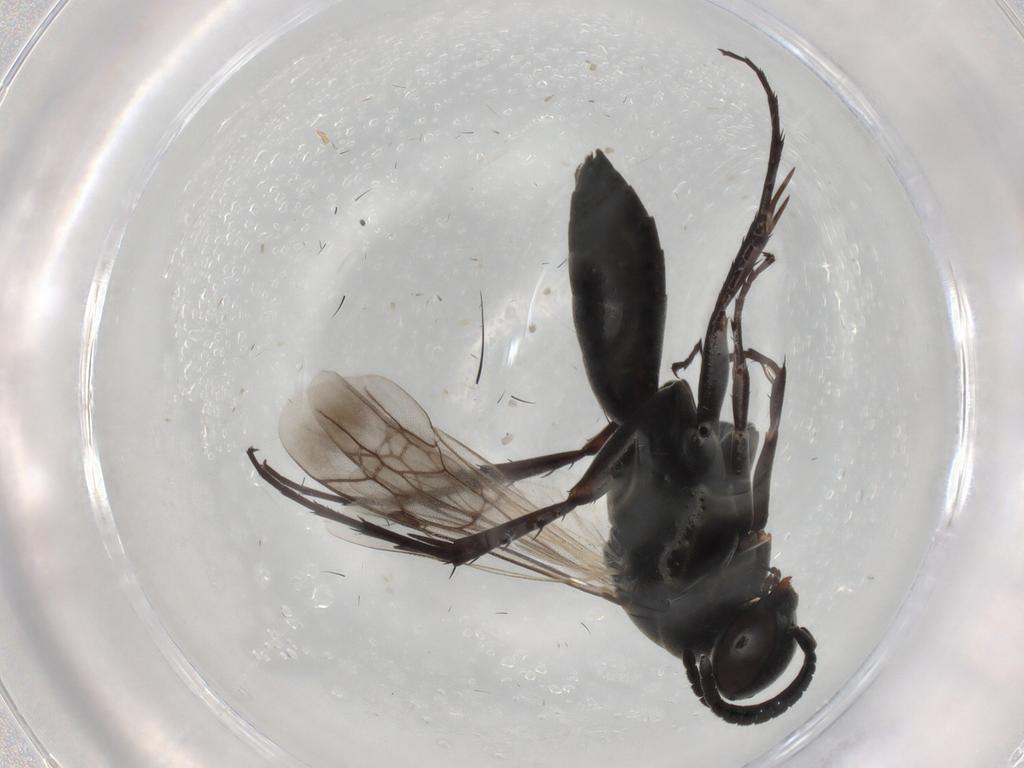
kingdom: Animalia
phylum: Arthropoda
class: Insecta
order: Hymenoptera
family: Pompilidae
